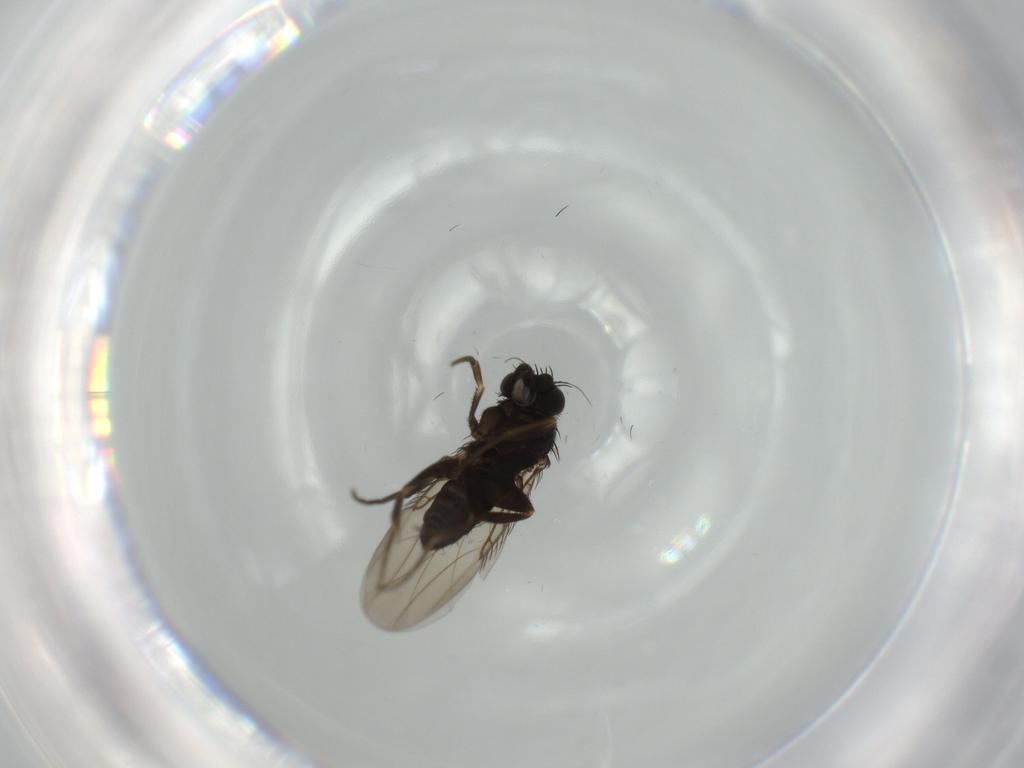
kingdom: Animalia
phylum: Arthropoda
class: Insecta
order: Diptera
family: Phoridae
